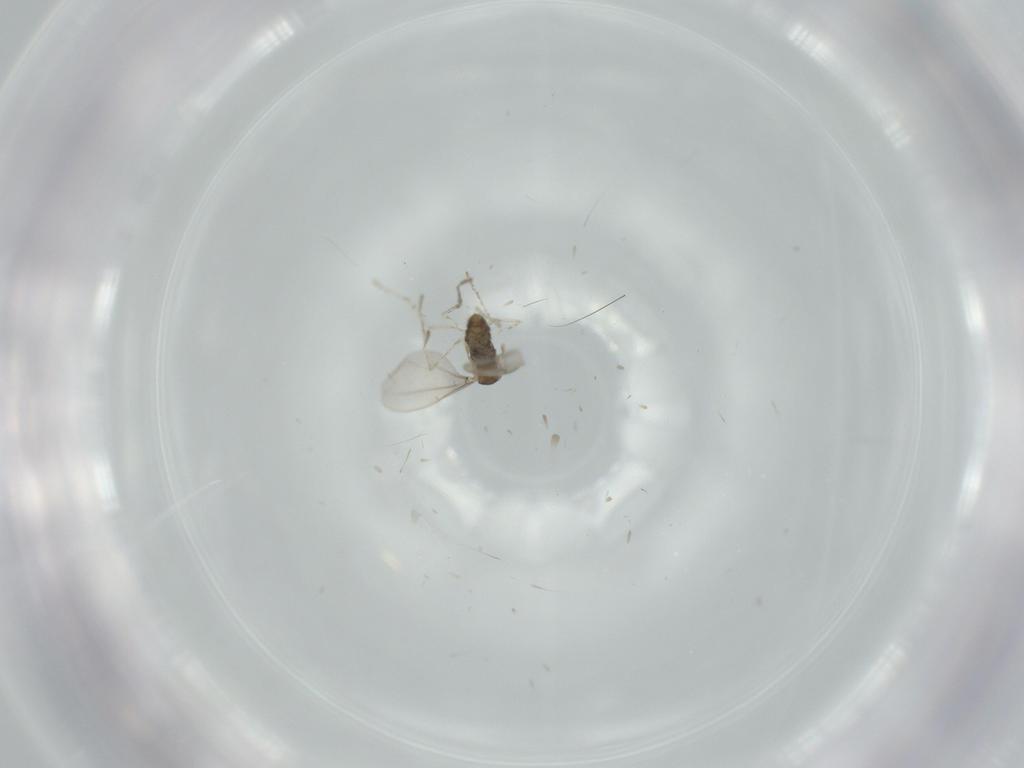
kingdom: Animalia
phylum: Arthropoda
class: Insecta
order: Diptera
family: Cecidomyiidae
